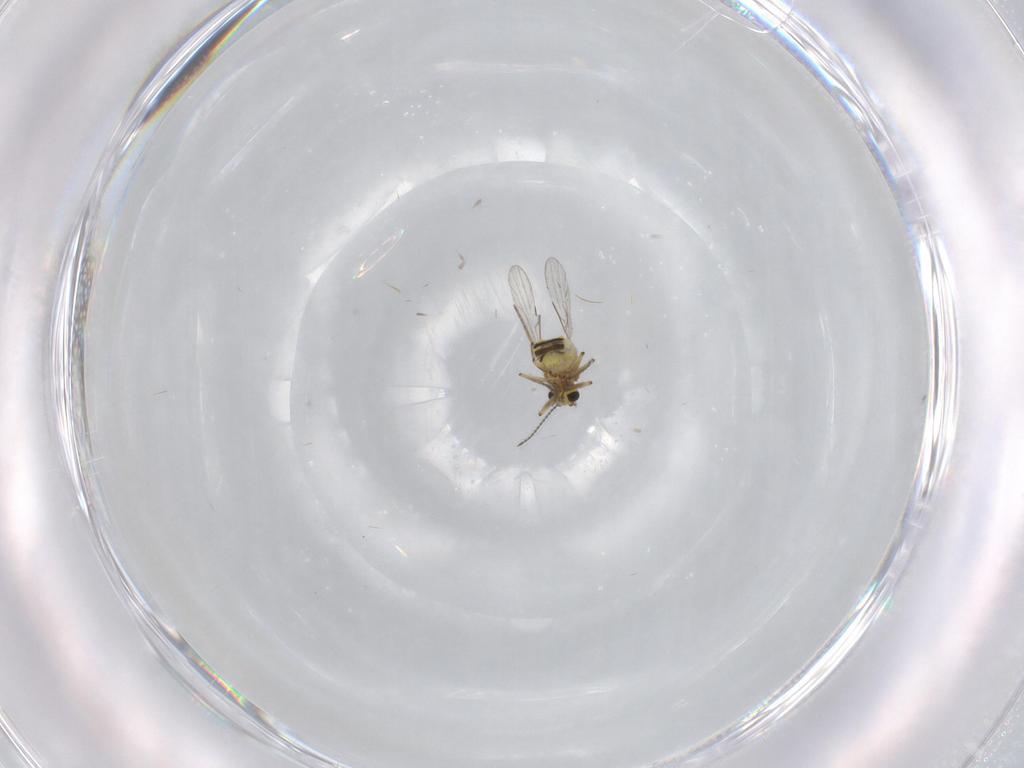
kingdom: Animalia
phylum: Arthropoda
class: Insecta
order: Diptera
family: Ceratopogonidae
